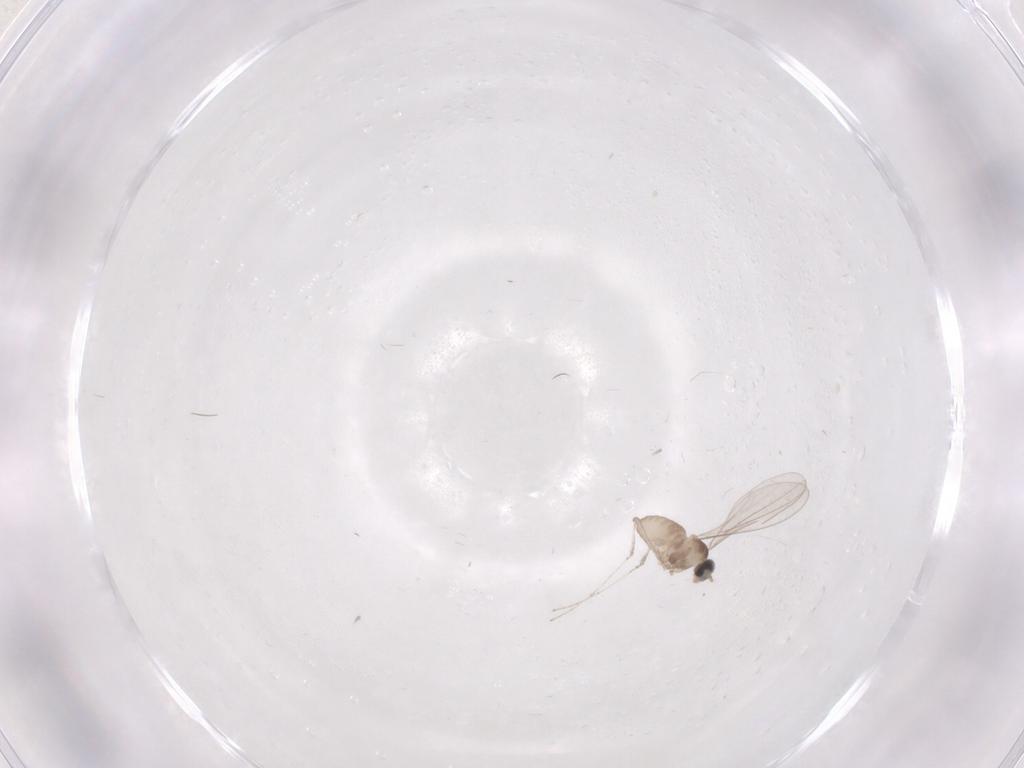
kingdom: Animalia
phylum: Arthropoda
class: Insecta
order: Diptera
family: Cecidomyiidae
